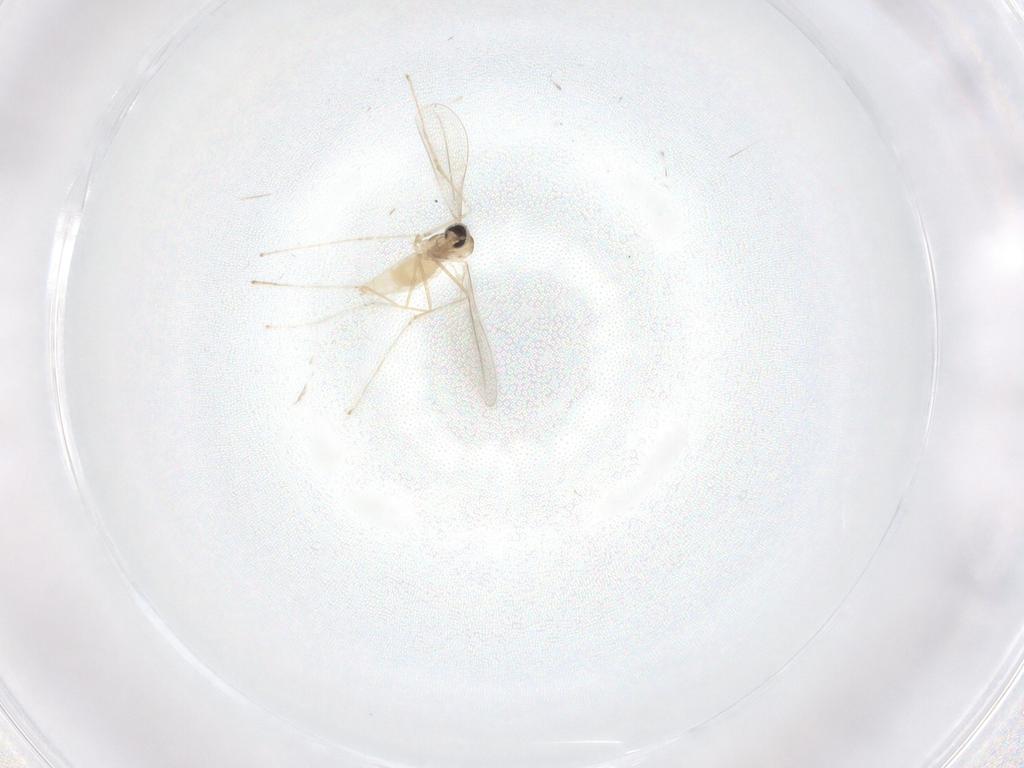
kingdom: Animalia
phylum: Arthropoda
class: Insecta
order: Diptera
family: Cecidomyiidae
